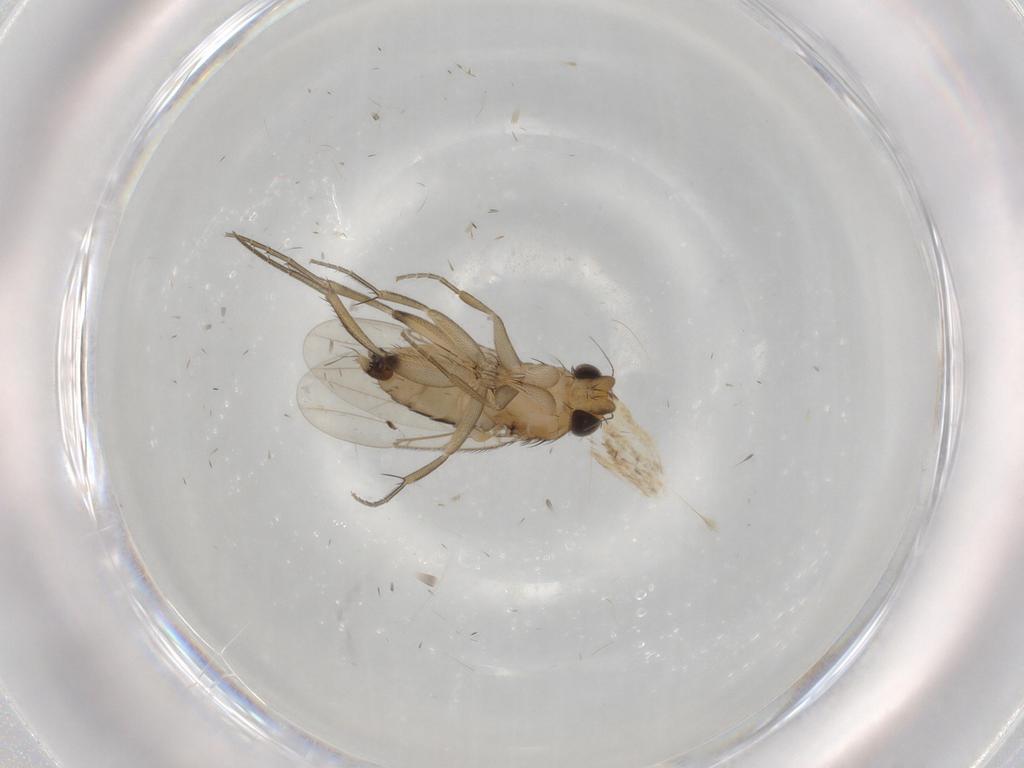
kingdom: Animalia
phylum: Arthropoda
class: Insecta
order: Diptera
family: Phoridae
